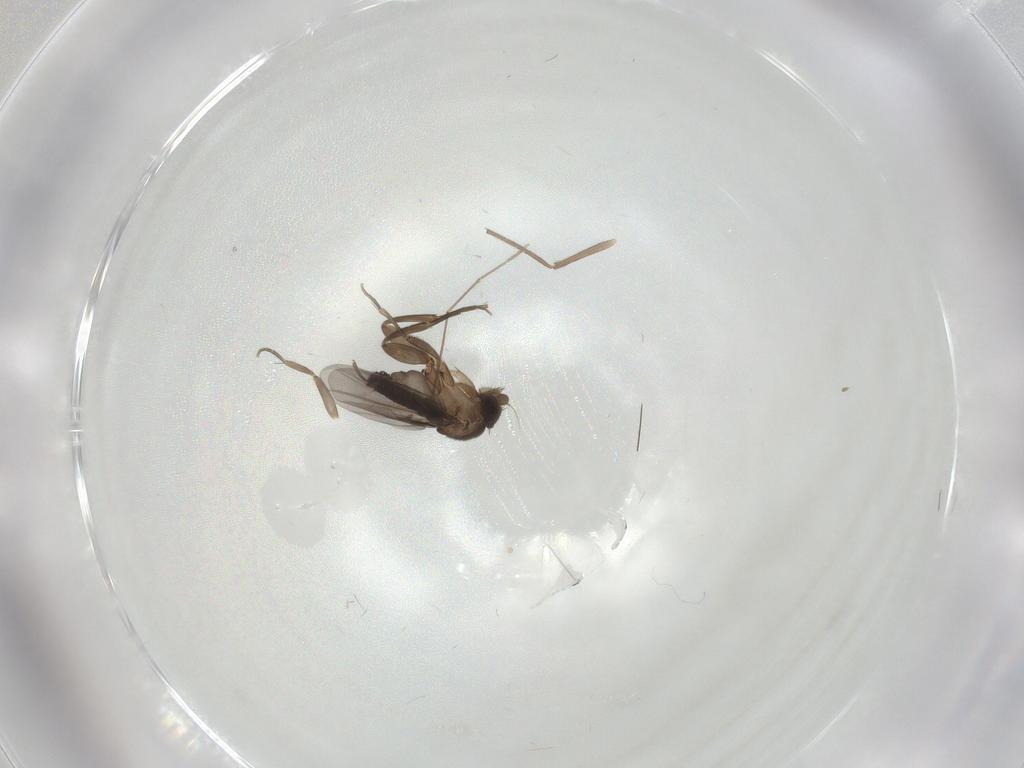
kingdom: Animalia
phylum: Arthropoda
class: Insecta
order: Diptera
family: Phoridae
